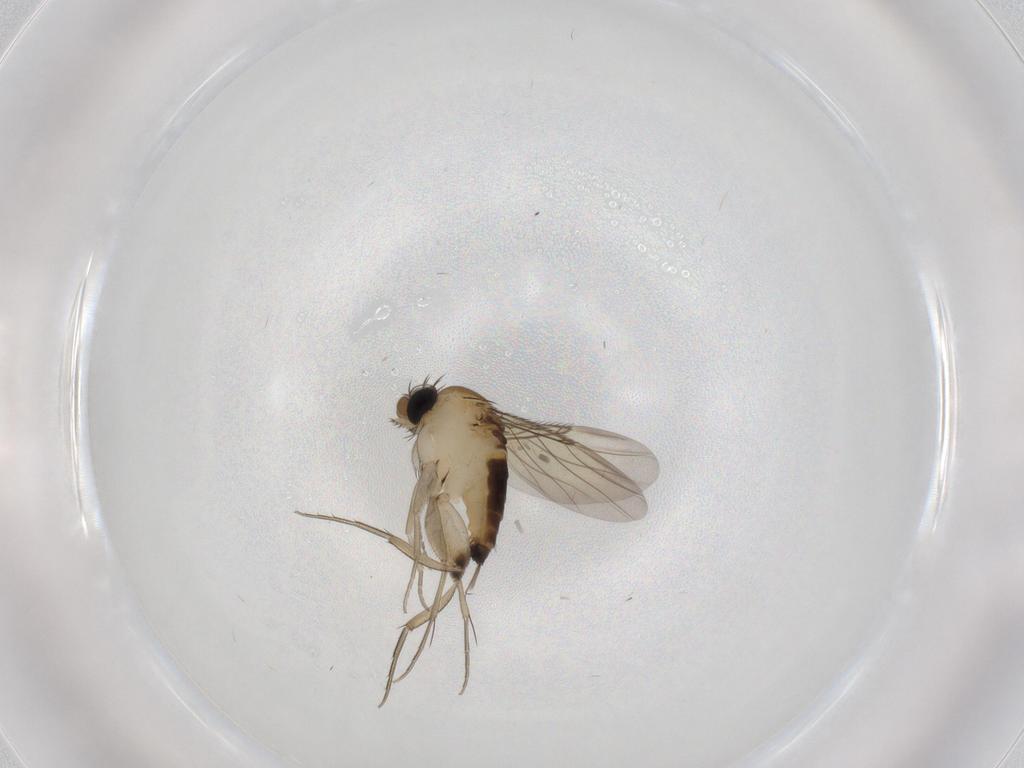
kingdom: Animalia
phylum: Arthropoda
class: Insecta
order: Diptera
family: Phoridae
